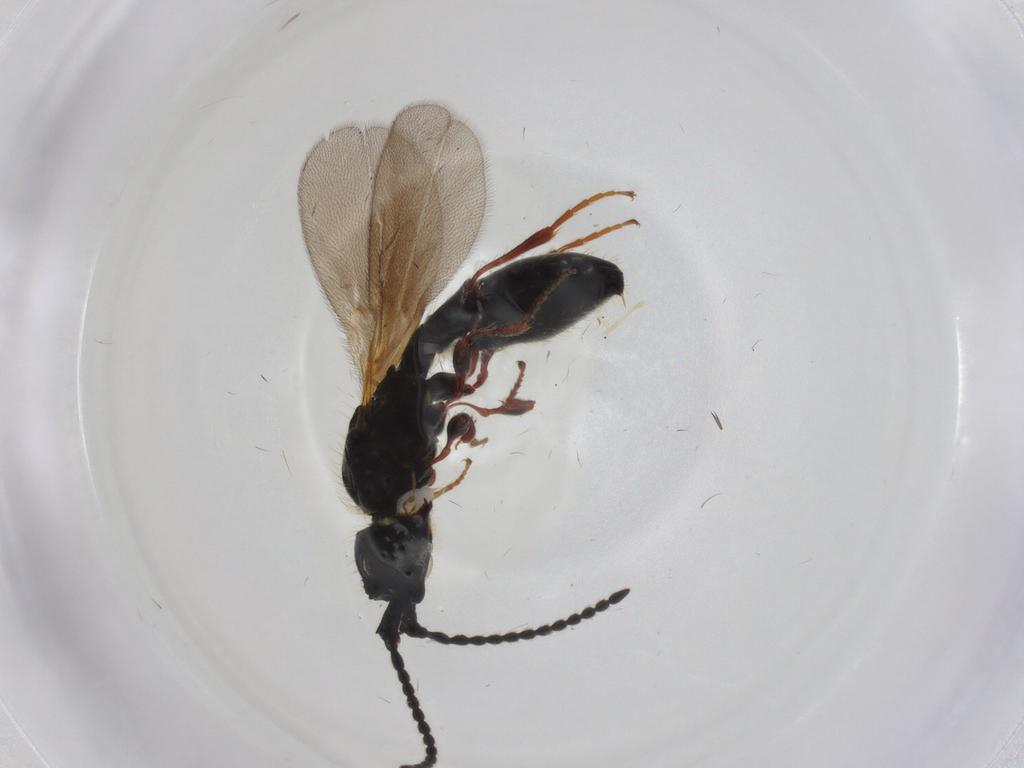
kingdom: Animalia
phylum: Arthropoda
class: Insecta
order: Hymenoptera
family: Diapriidae
